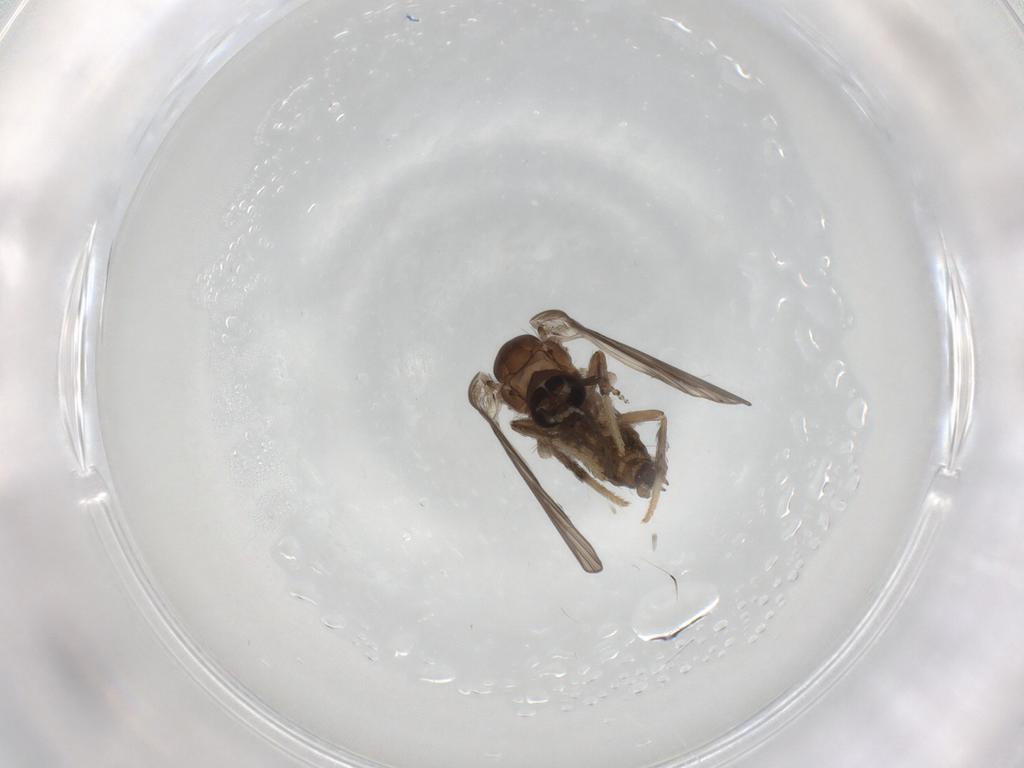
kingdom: Animalia
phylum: Arthropoda
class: Insecta
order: Diptera
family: Psychodidae
